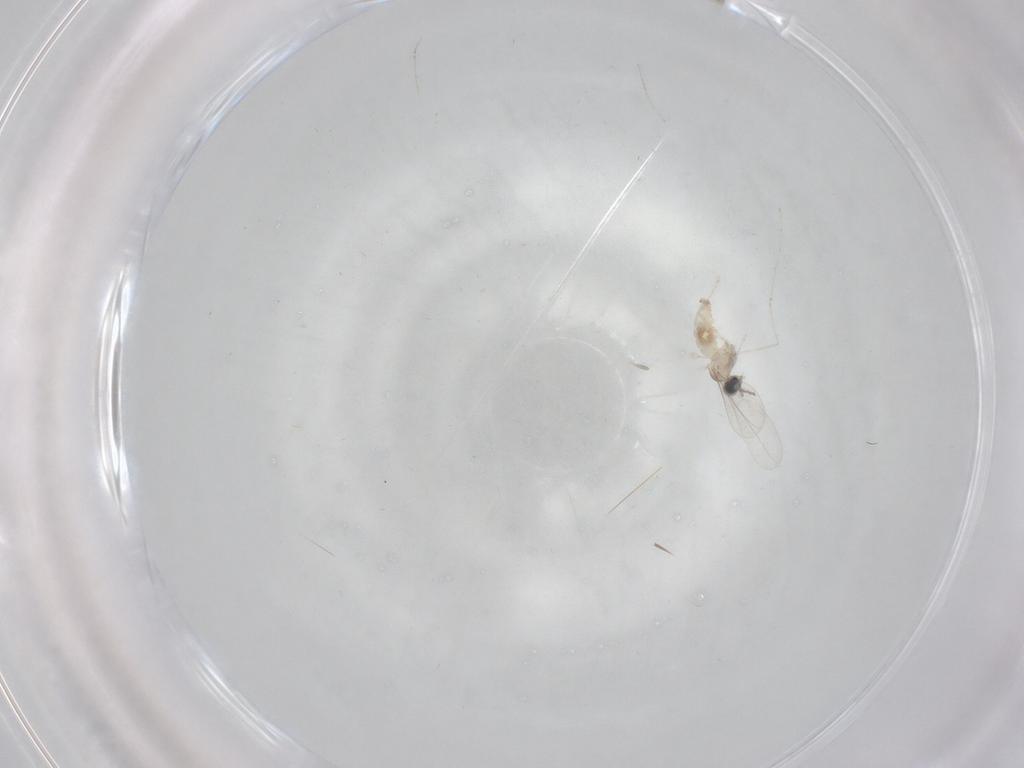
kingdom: Animalia
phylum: Arthropoda
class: Insecta
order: Diptera
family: Cecidomyiidae
